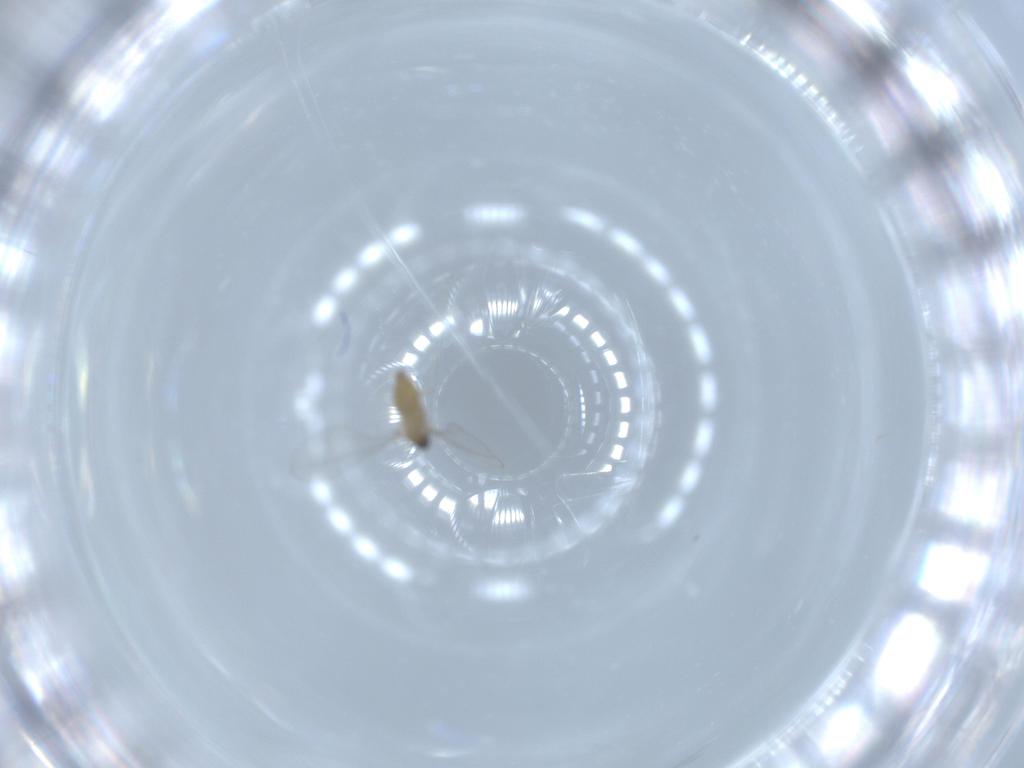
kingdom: Animalia
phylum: Arthropoda
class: Insecta
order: Diptera
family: Cecidomyiidae
